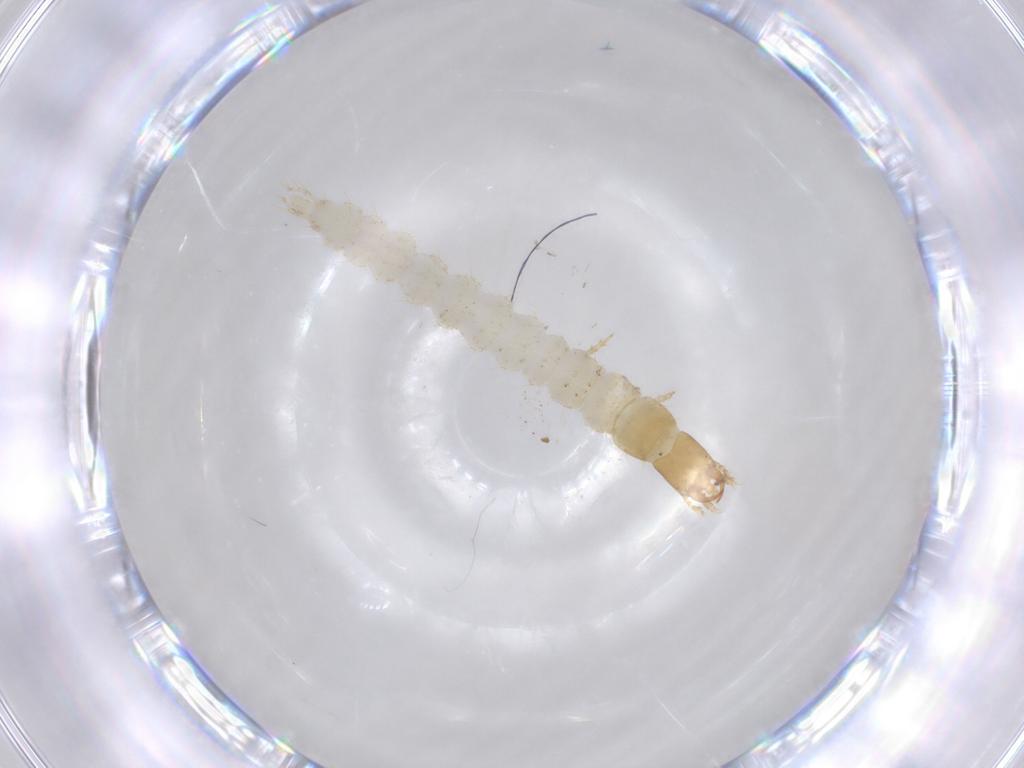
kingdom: Animalia
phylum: Arthropoda
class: Insecta
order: Coleoptera
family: Carabidae
